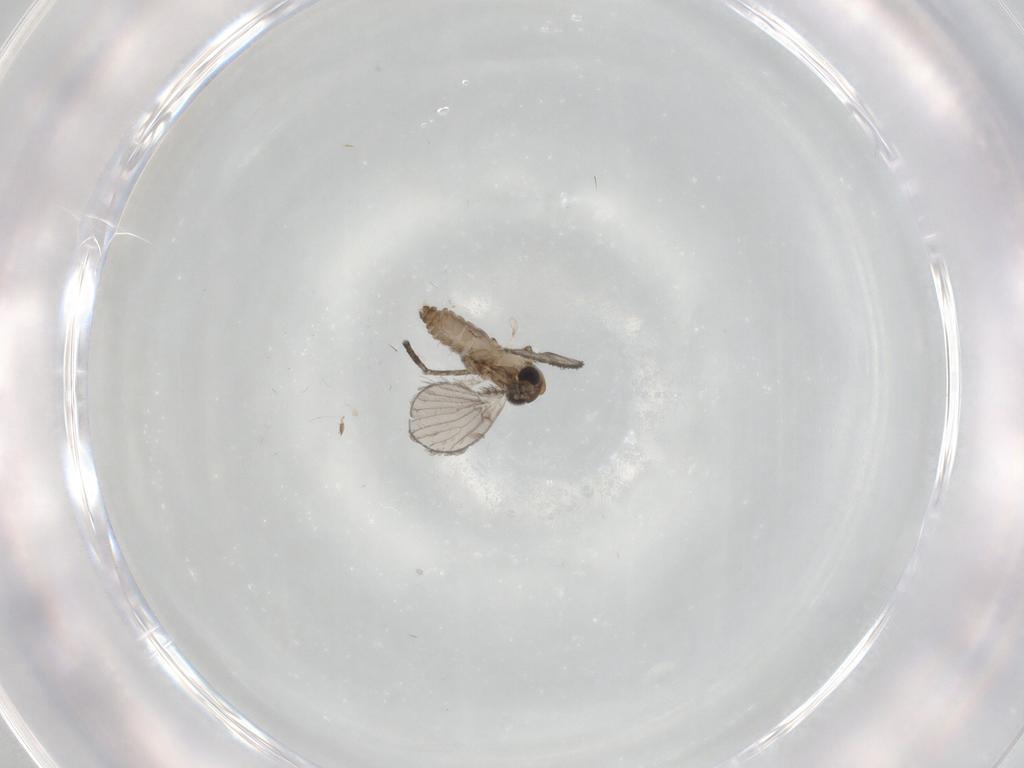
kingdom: Animalia
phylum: Arthropoda
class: Insecta
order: Diptera
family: Psychodidae
